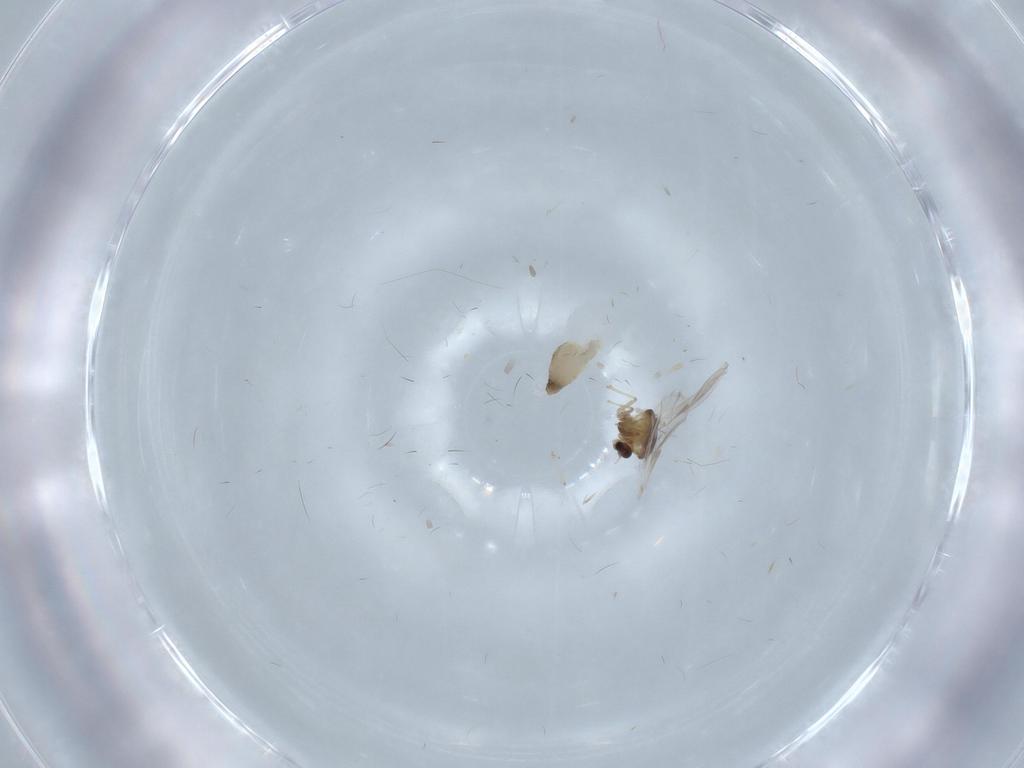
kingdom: Animalia
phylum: Arthropoda
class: Insecta
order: Diptera
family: Chironomidae
